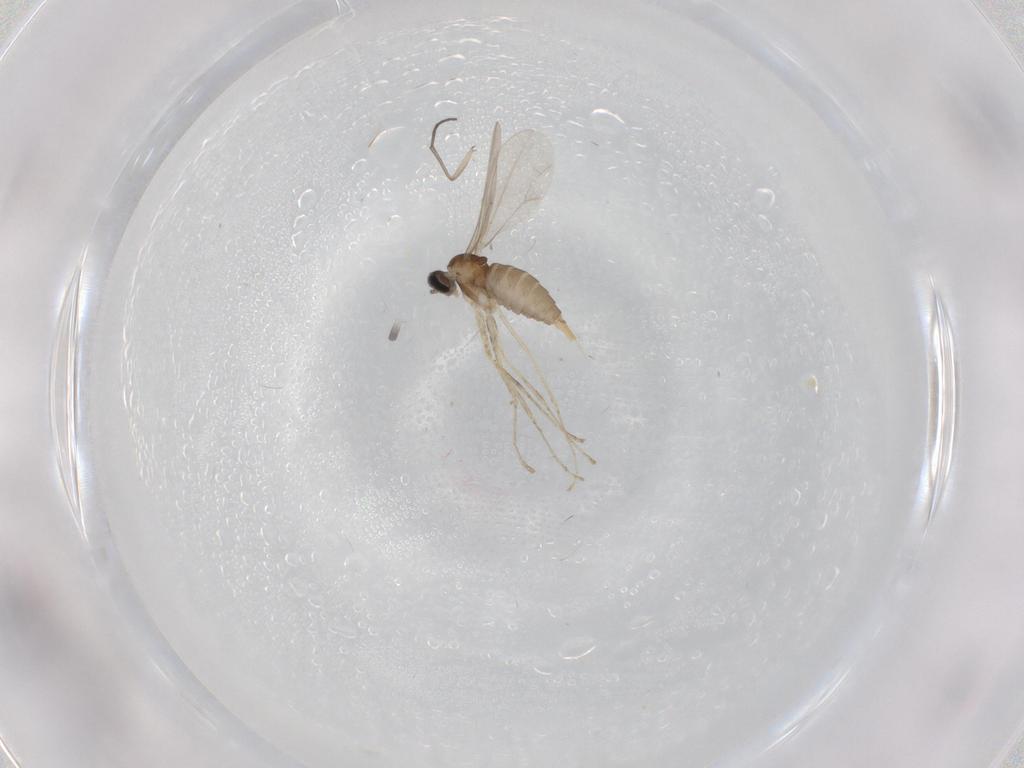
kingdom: Animalia
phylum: Arthropoda
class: Insecta
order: Diptera
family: Cecidomyiidae
